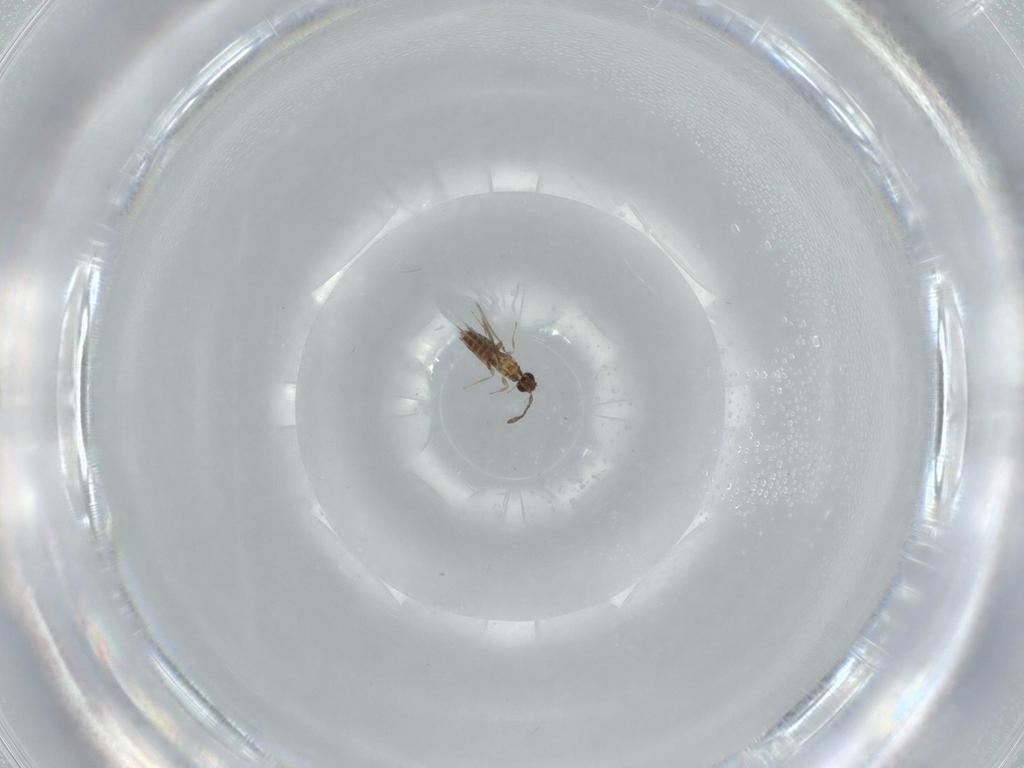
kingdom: Animalia
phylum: Arthropoda
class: Insecta
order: Hymenoptera
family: Mymaridae
